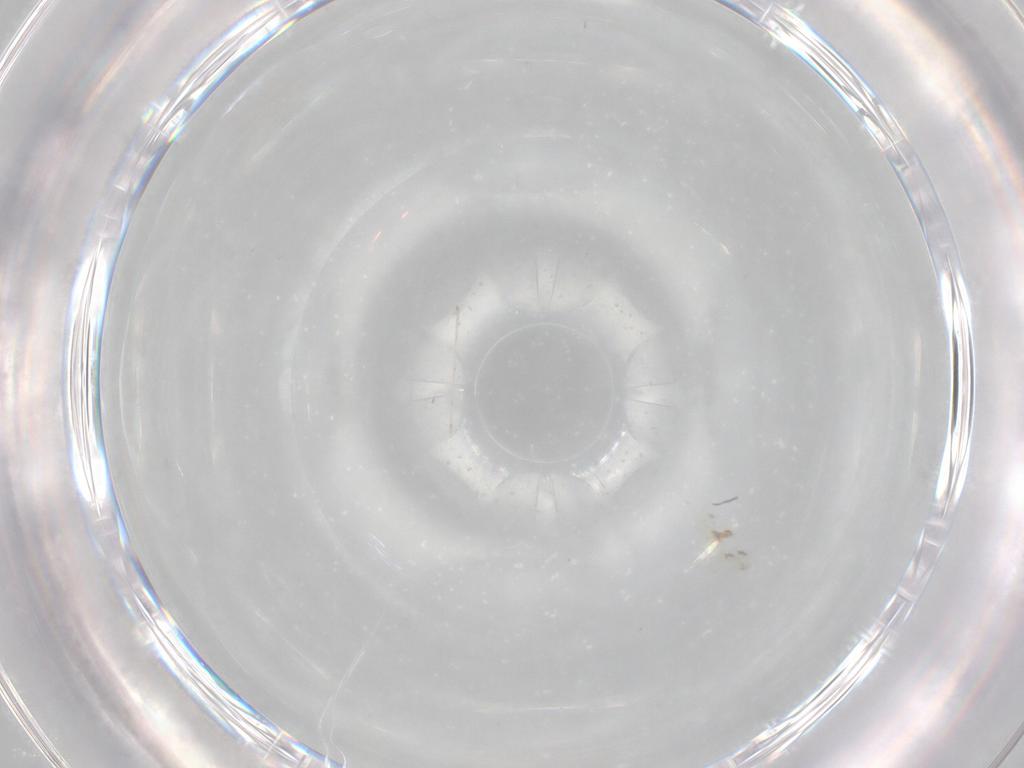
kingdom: Animalia
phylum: Arthropoda
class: Insecta
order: Diptera
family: Cecidomyiidae
